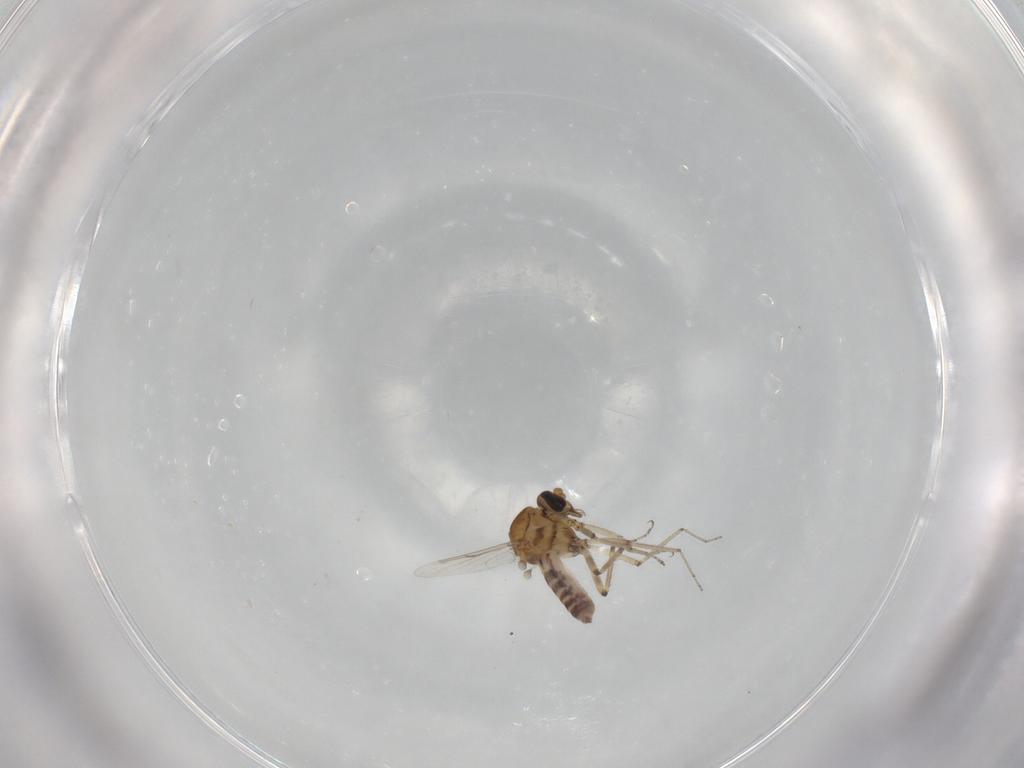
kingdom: Animalia
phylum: Arthropoda
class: Insecta
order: Diptera
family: Ceratopogonidae
